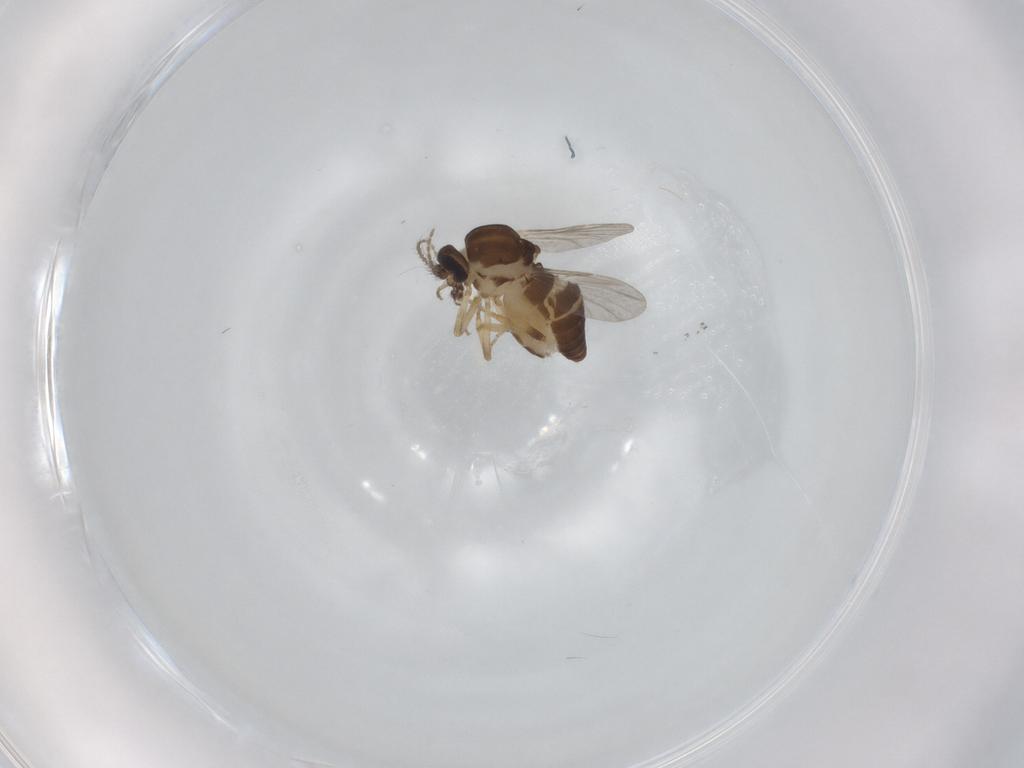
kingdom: Animalia
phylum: Arthropoda
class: Insecta
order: Diptera
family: Ceratopogonidae
